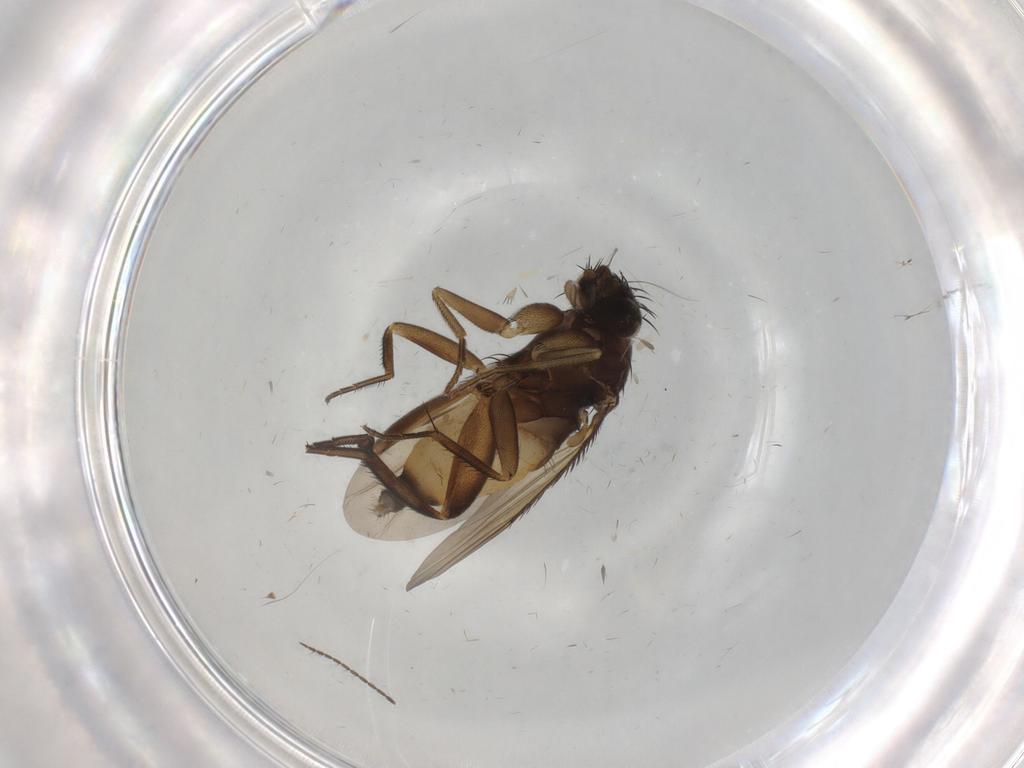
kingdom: Animalia
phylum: Arthropoda
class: Insecta
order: Diptera
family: Phoridae
